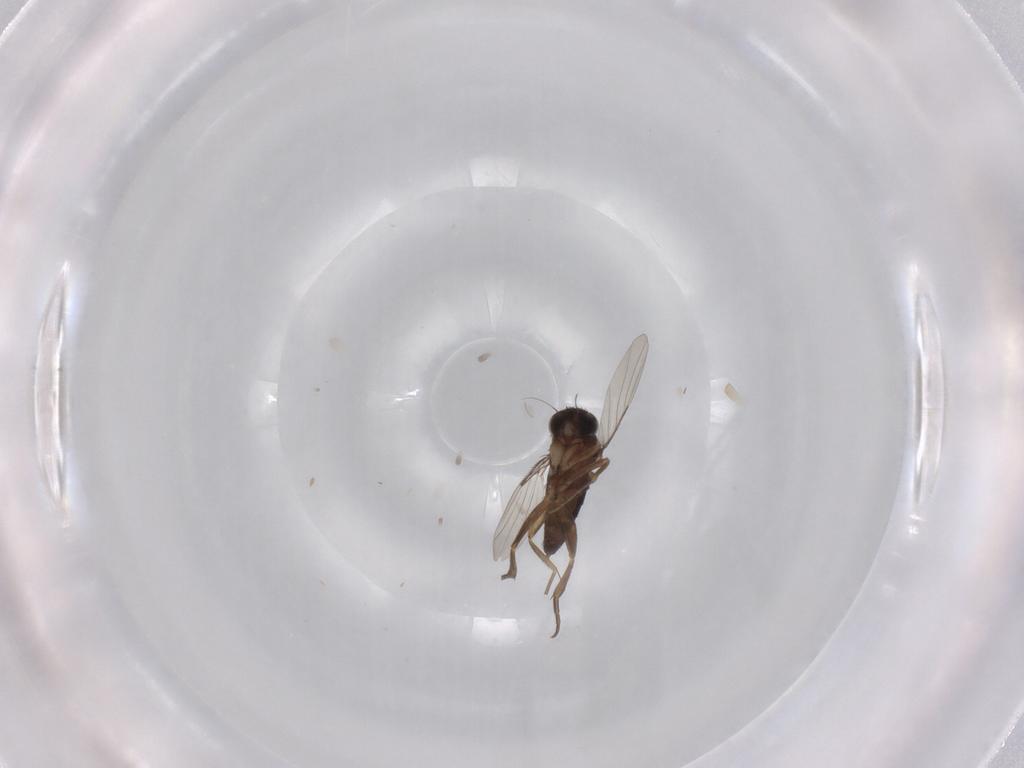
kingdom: Animalia
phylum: Arthropoda
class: Insecta
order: Diptera
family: Phoridae
